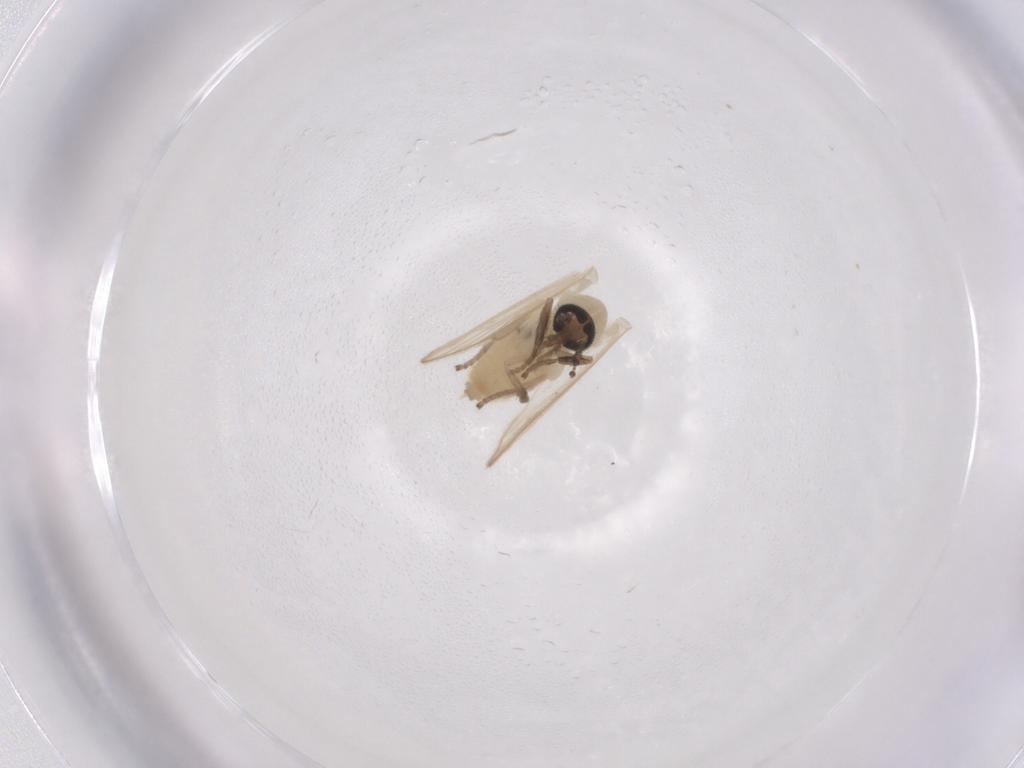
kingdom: Animalia
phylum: Arthropoda
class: Insecta
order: Diptera
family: Psychodidae
